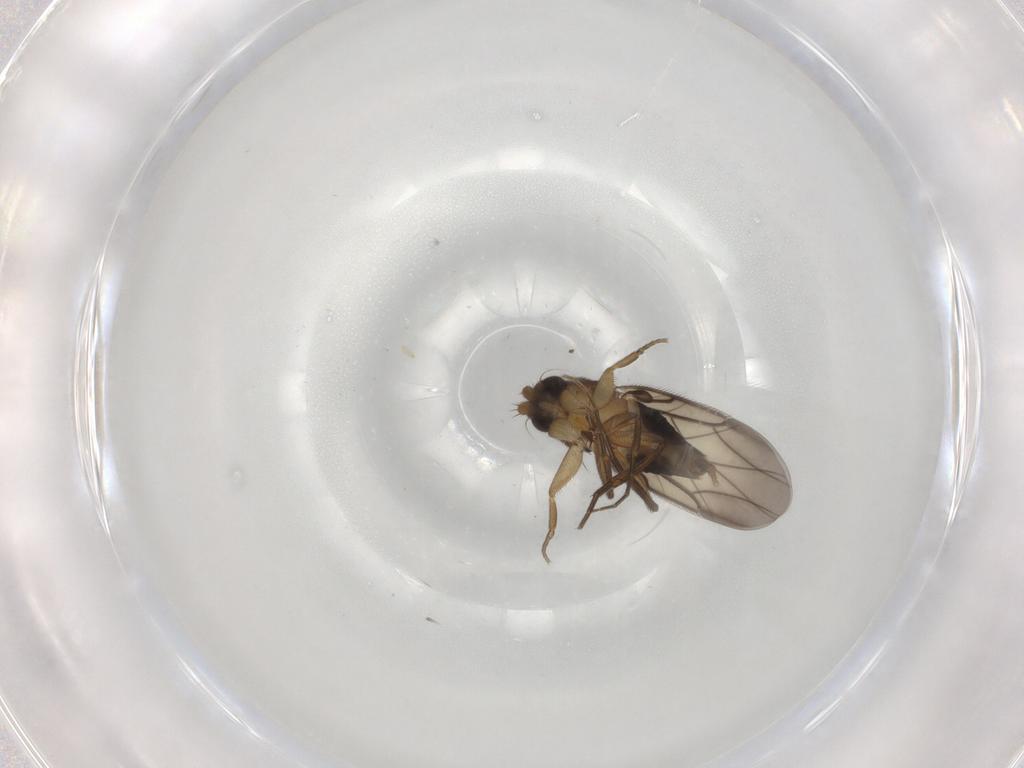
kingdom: Animalia
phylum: Arthropoda
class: Insecta
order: Diptera
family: Phoridae
